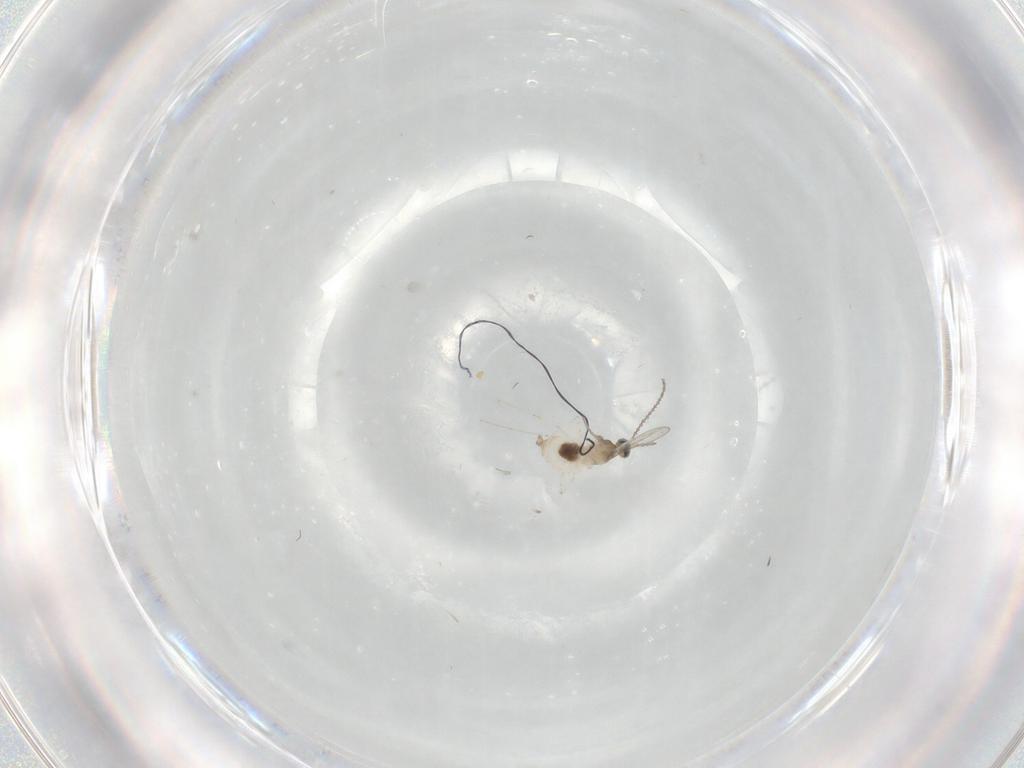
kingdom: Animalia
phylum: Arthropoda
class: Insecta
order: Diptera
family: Cecidomyiidae
